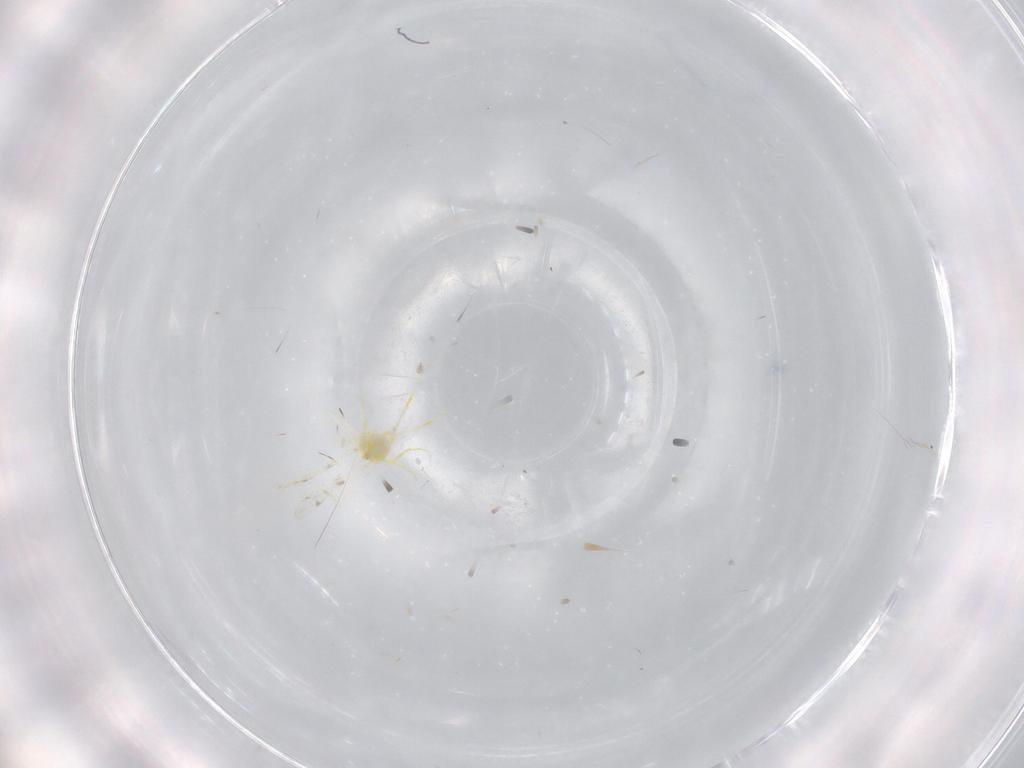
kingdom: Animalia
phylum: Arthropoda
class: Insecta
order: Hemiptera
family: Aleyrodidae
